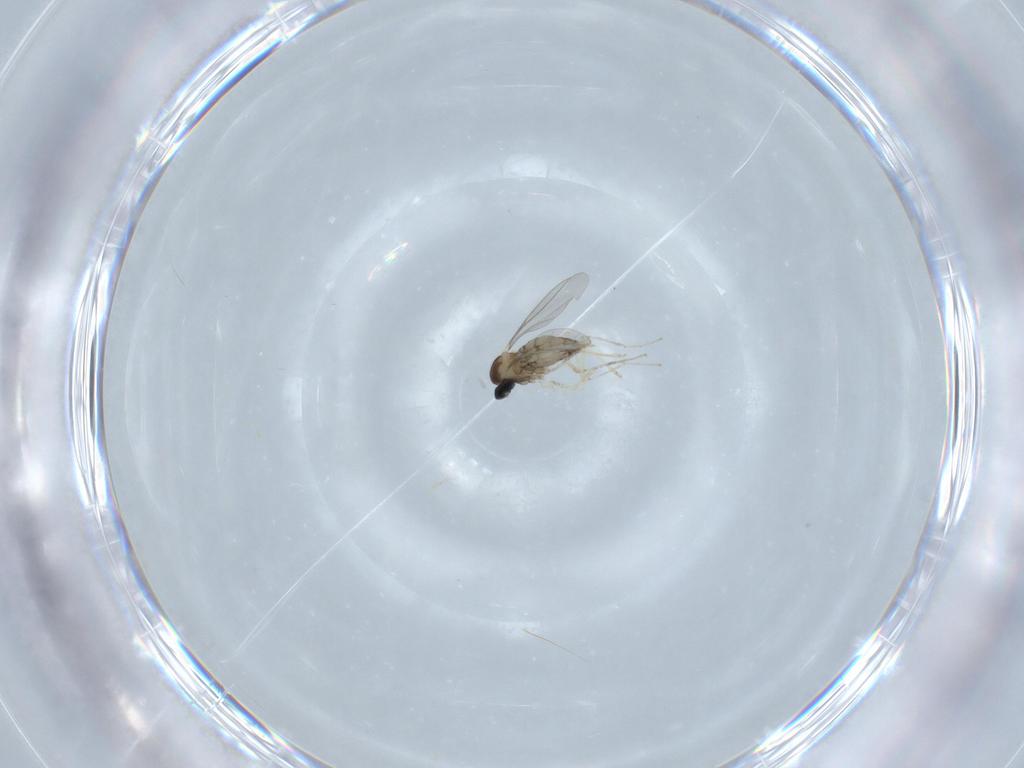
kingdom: Animalia
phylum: Arthropoda
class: Insecta
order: Diptera
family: Cecidomyiidae
